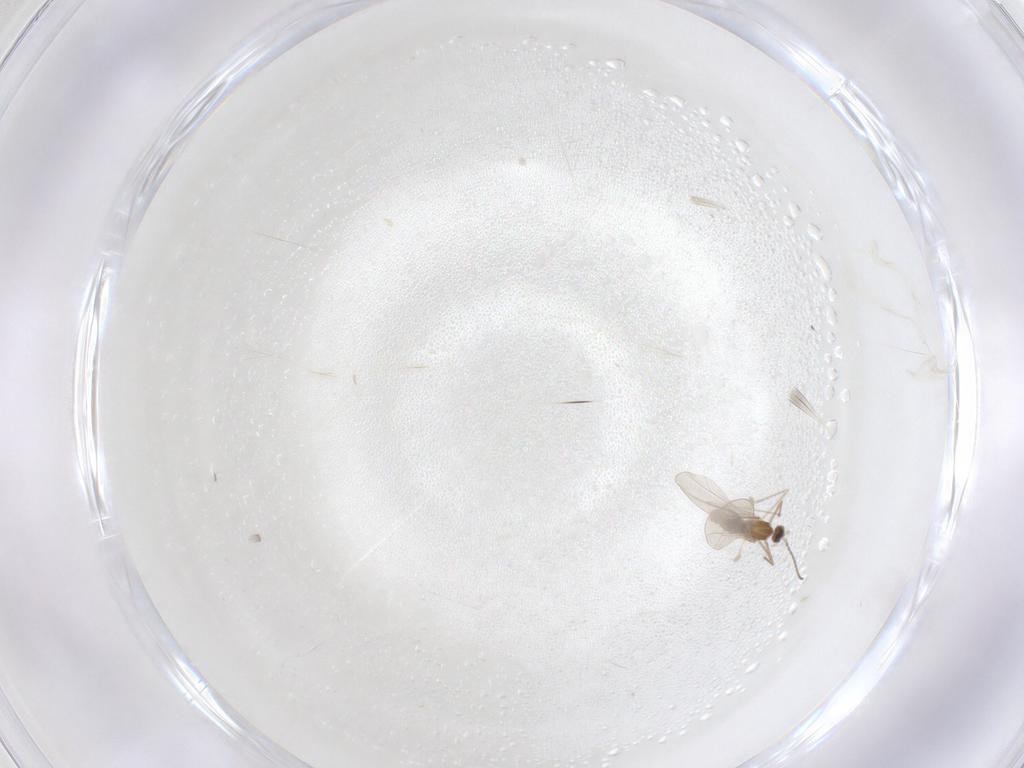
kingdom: Animalia
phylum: Arthropoda
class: Insecta
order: Diptera
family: Cecidomyiidae
